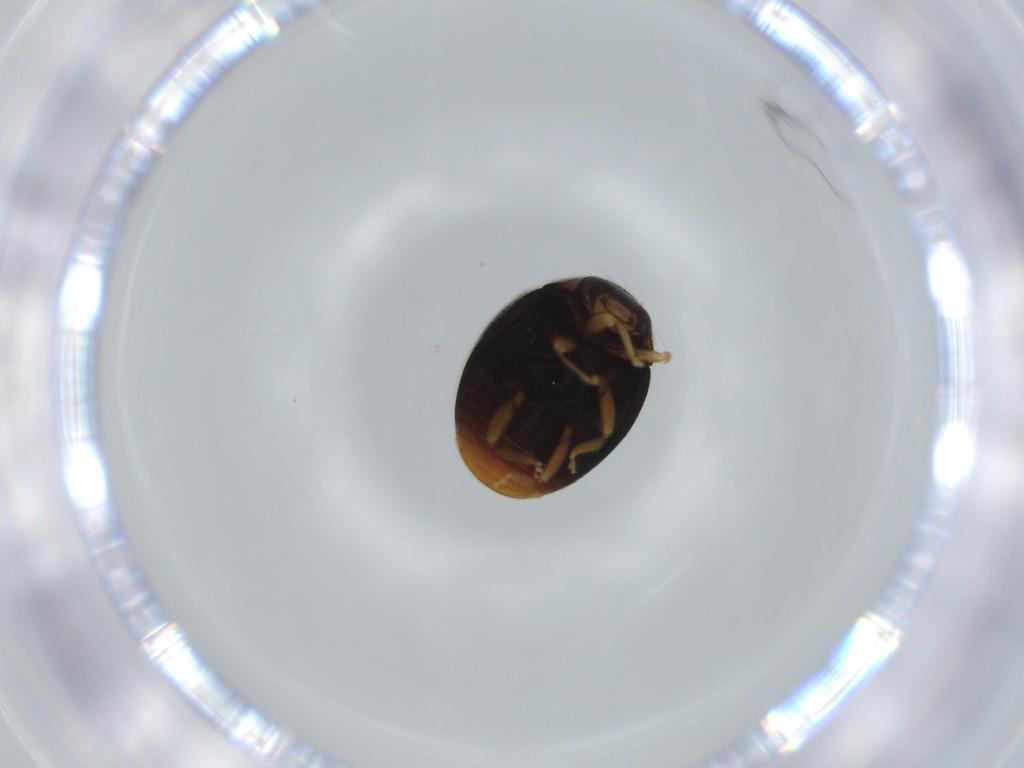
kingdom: Animalia
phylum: Arthropoda
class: Insecta
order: Coleoptera
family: Coccinellidae
